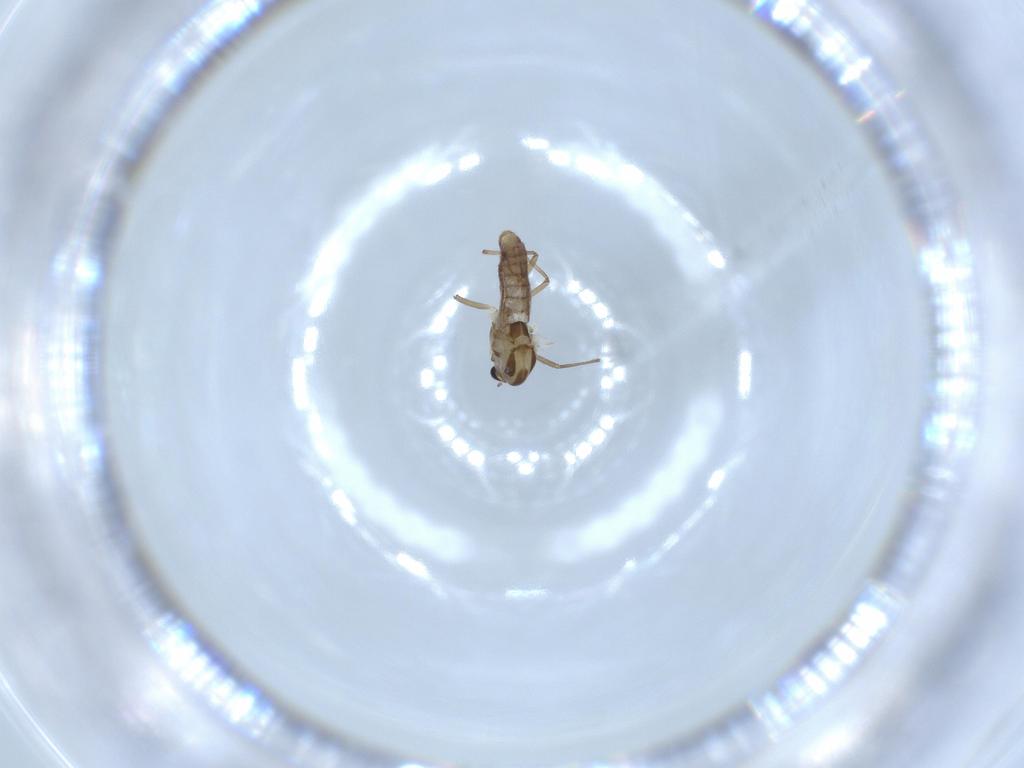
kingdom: Animalia
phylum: Arthropoda
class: Insecta
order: Diptera
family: Chironomidae
